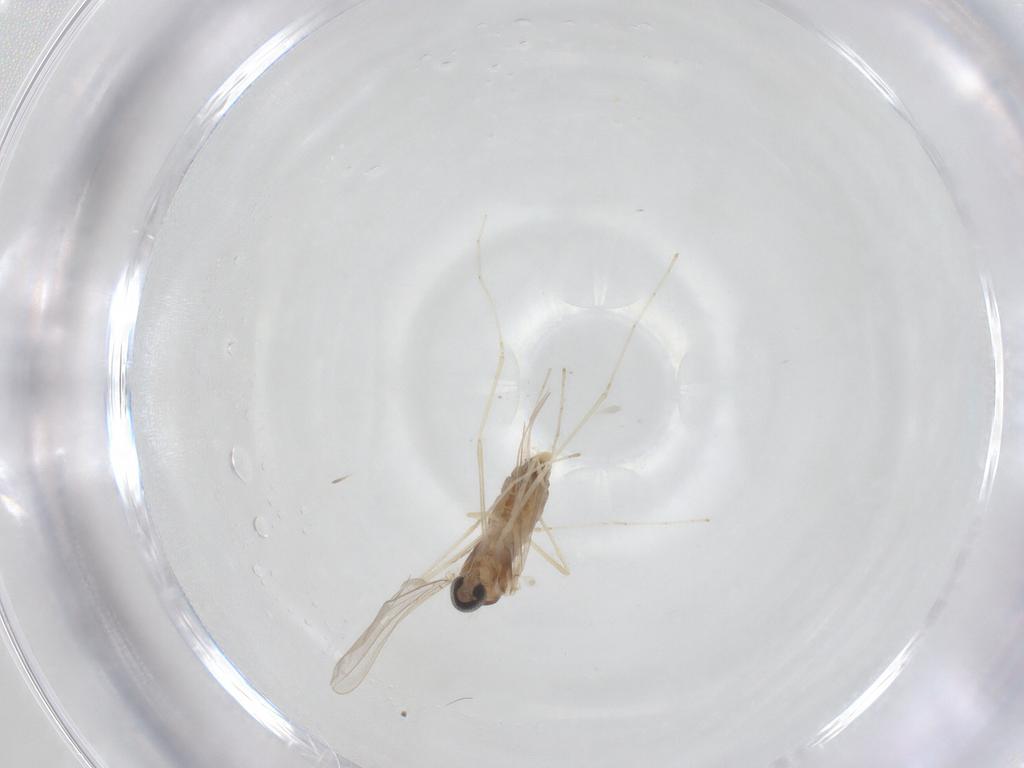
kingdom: Animalia
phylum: Arthropoda
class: Insecta
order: Diptera
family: Cecidomyiidae
